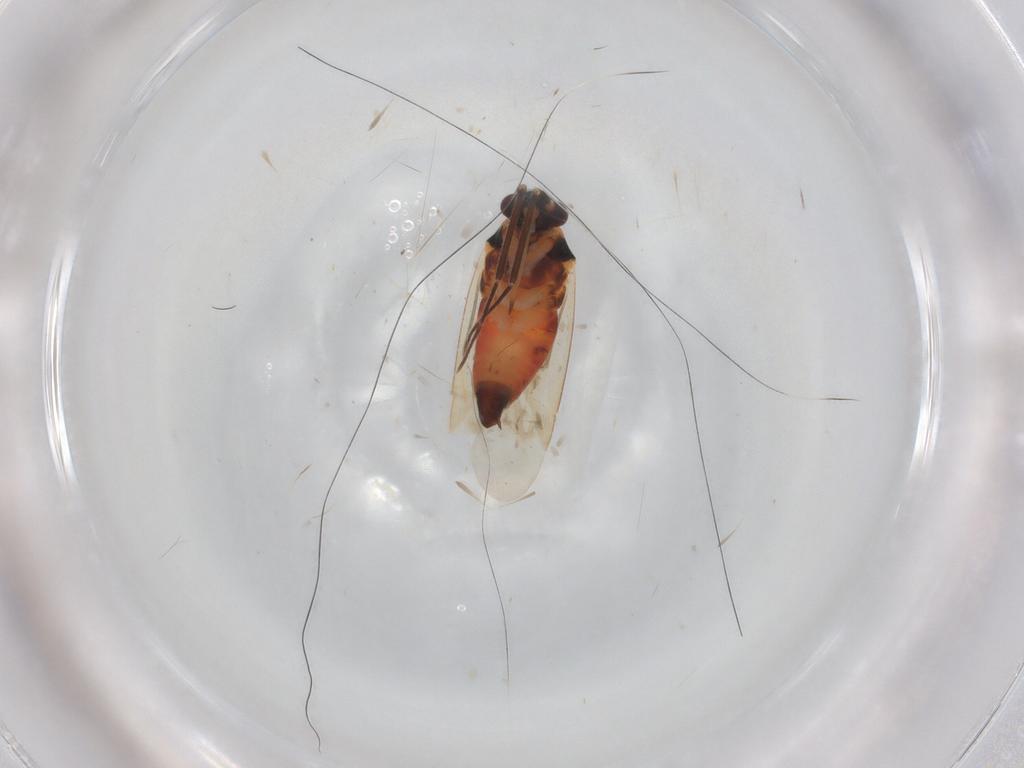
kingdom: Animalia
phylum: Arthropoda
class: Insecta
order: Hemiptera
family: Miridae
